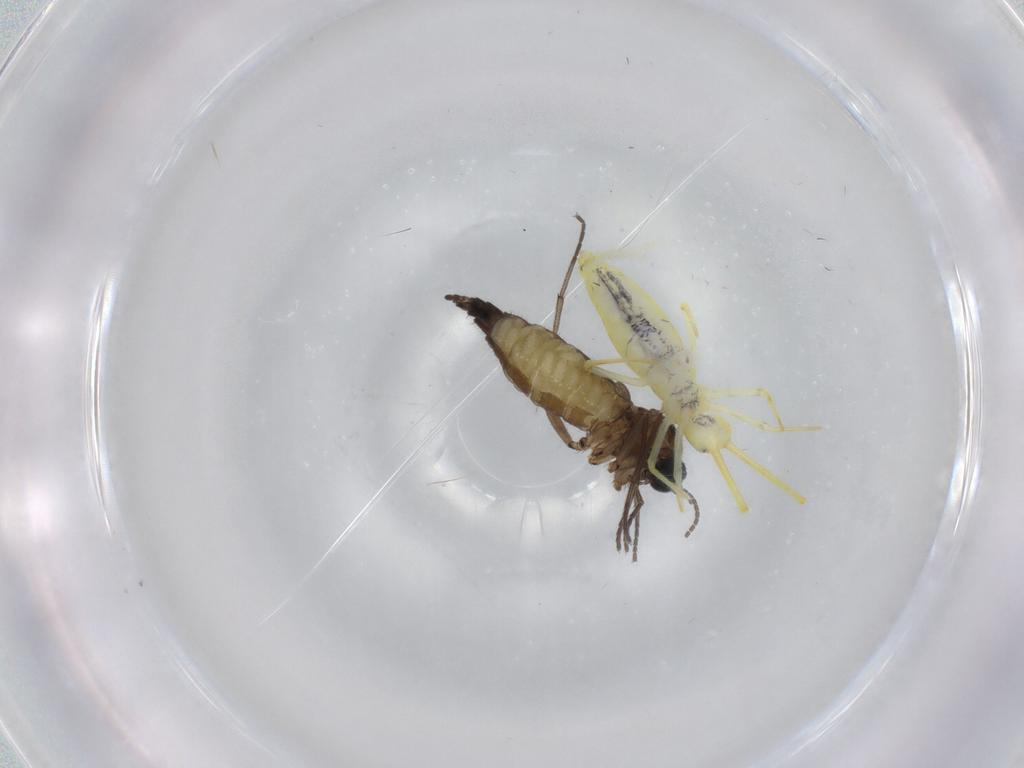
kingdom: Animalia
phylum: Arthropoda
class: Insecta
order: Diptera
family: Sciaridae
